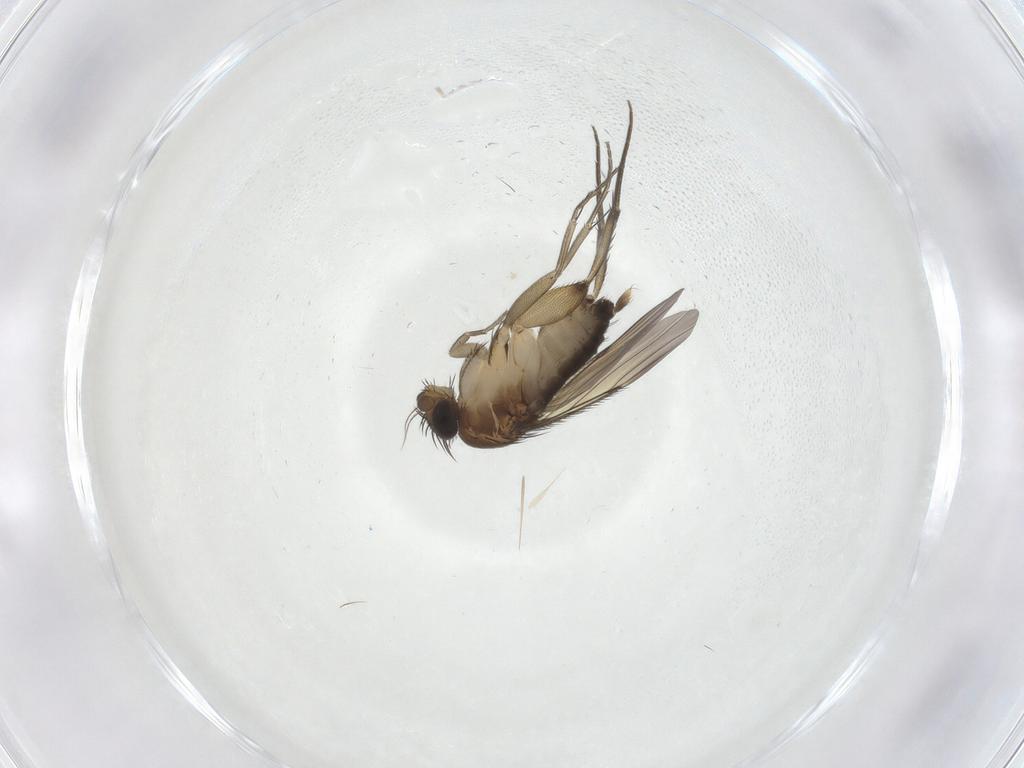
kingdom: Animalia
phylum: Arthropoda
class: Insecta
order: Diptera
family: Phoridae
